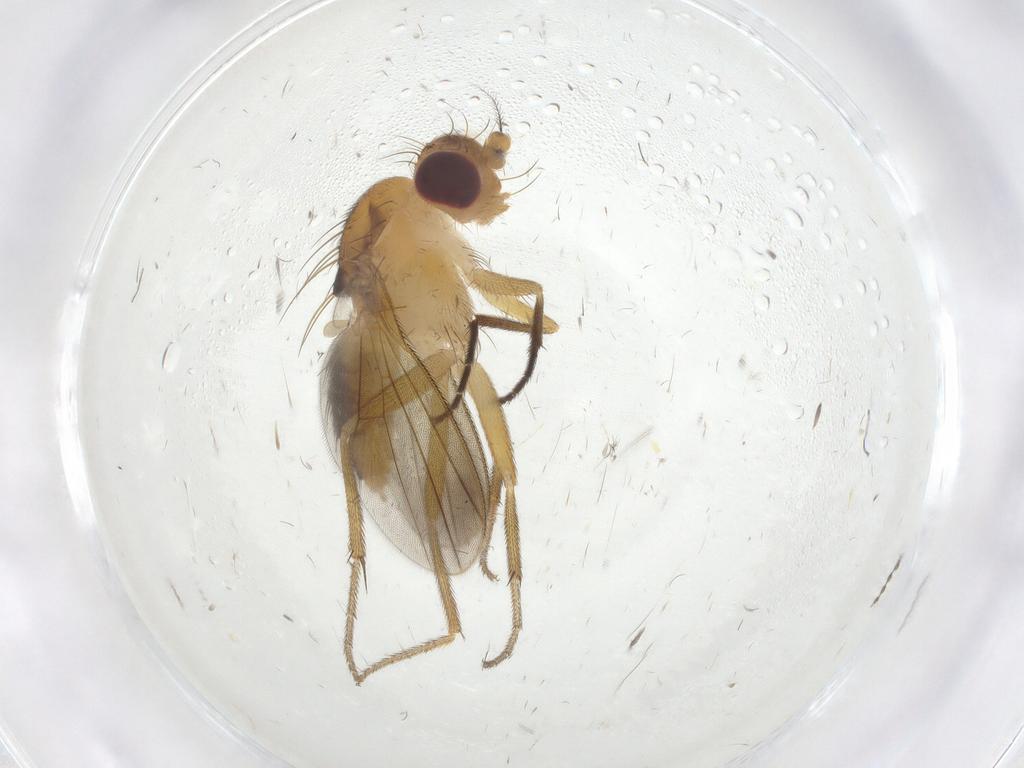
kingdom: Animalia
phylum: Arthropoda
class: Insecta
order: Diptera
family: Clusiidae
